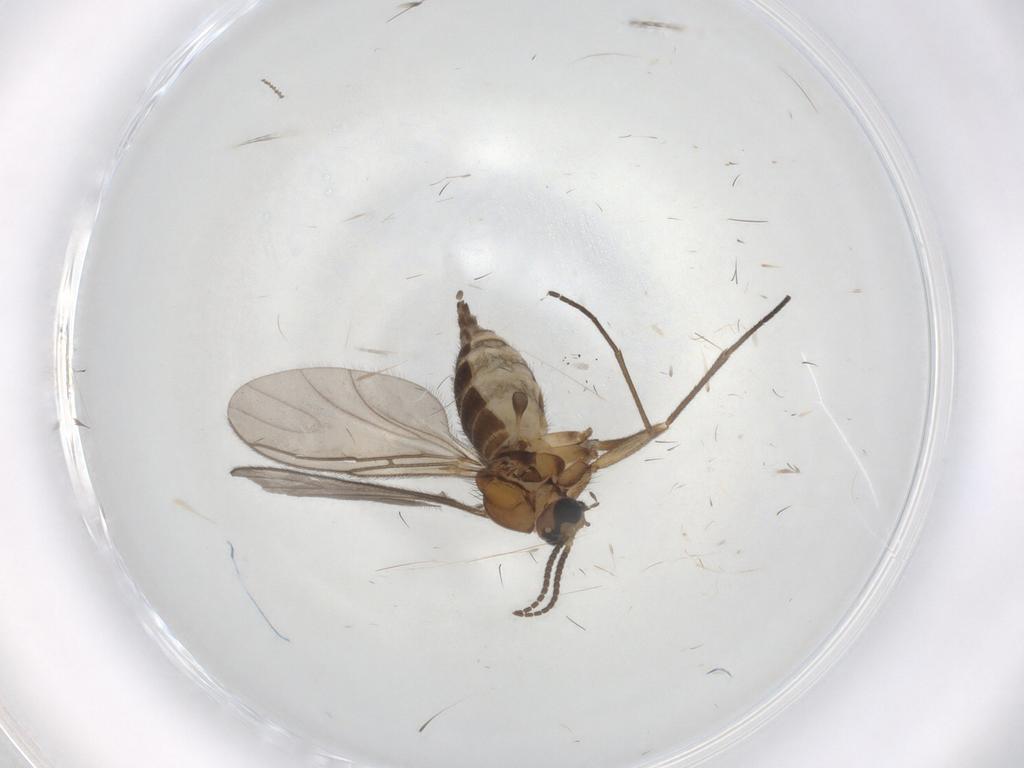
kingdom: Animalia
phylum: Arthropoda
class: Insecta
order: Diptera
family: Sciaridae
